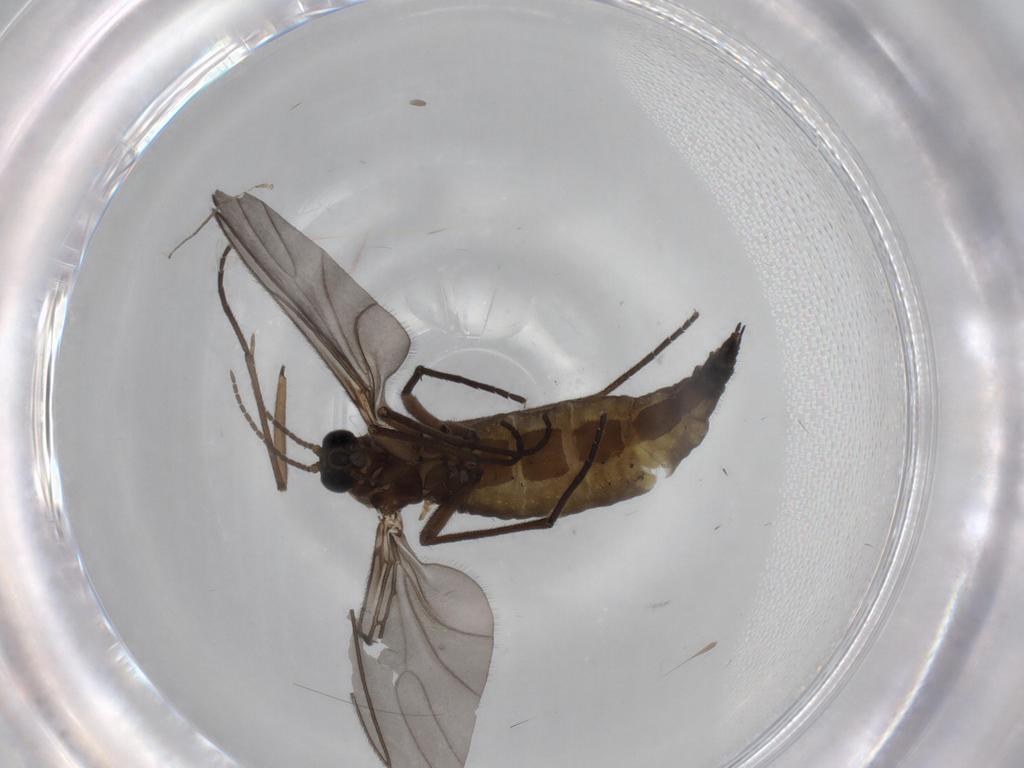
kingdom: Animalia
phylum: Arthropoda
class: Insecta
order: Diptera
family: Sciaridae
